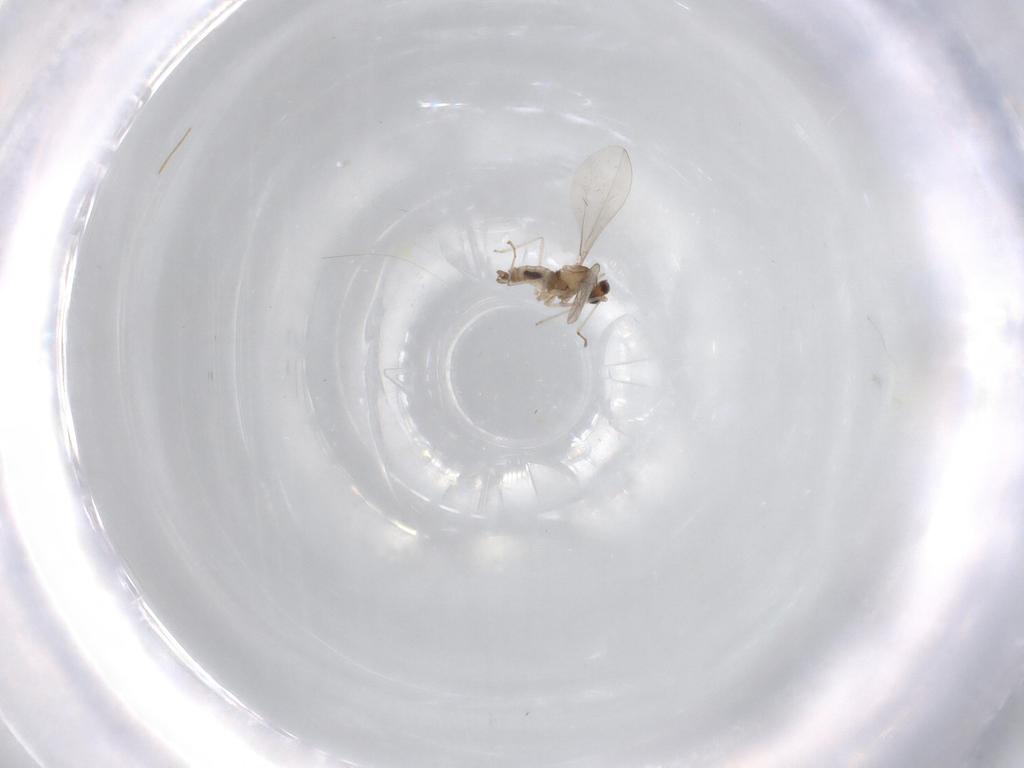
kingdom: Animalia
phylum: Arthropoda
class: Insecta
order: Diptera
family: Cecidomyiidae
